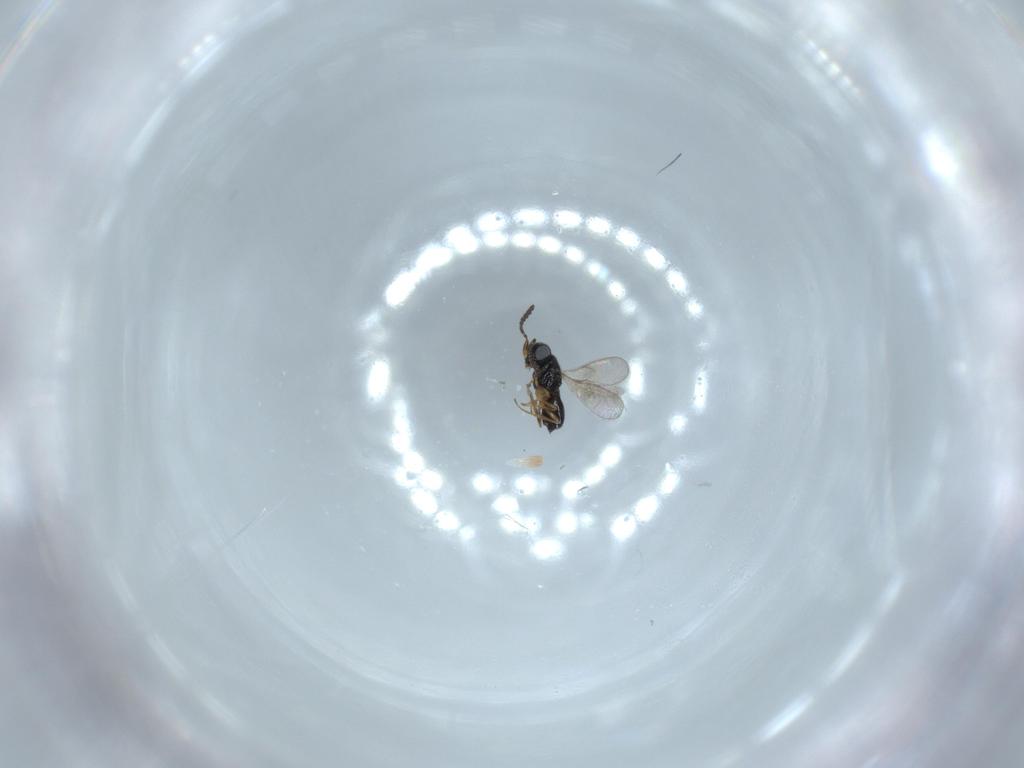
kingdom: Animalia
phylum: Arthropoda
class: Insecta
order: Hymenoptera
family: Scelionidae
